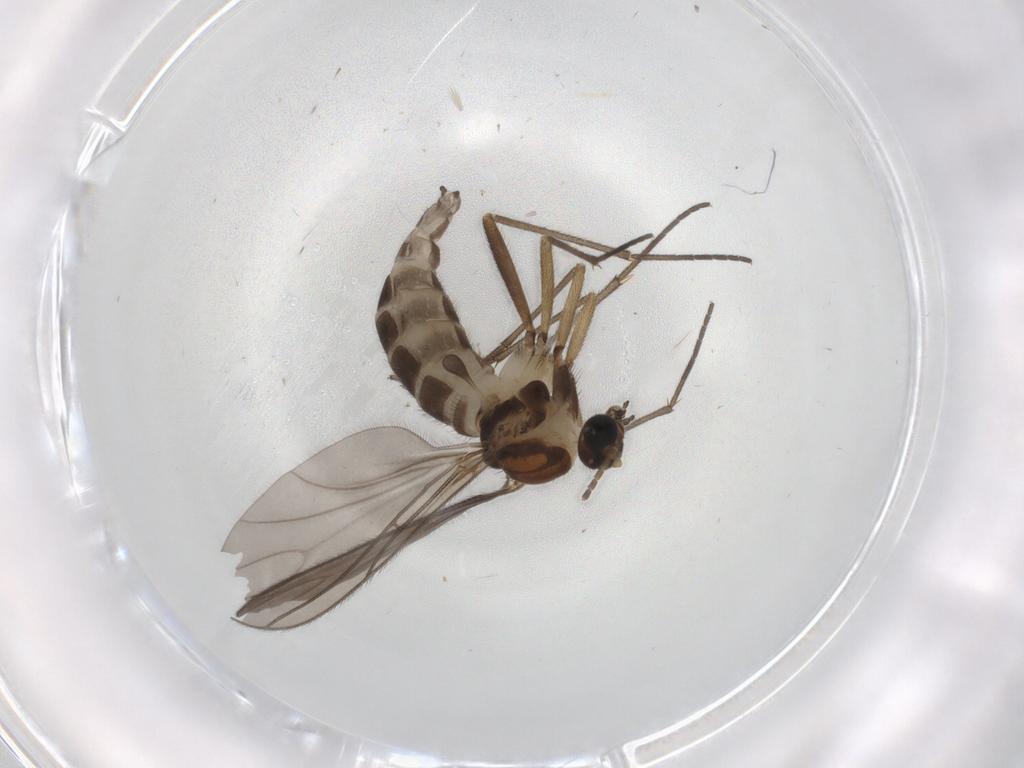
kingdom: Animalia
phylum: Arthropoda
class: Insecta
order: Diptera
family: Sciaridae
